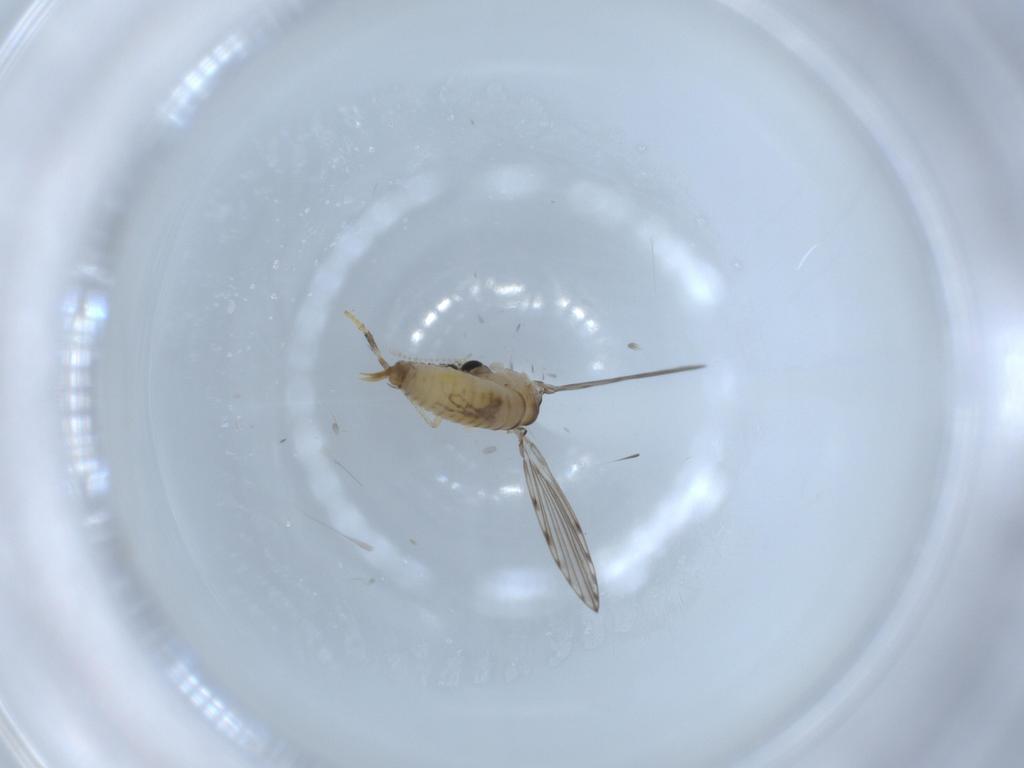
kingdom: Animalia
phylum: Arthropoda
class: Insecta
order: Diptera
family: Psychodidae
